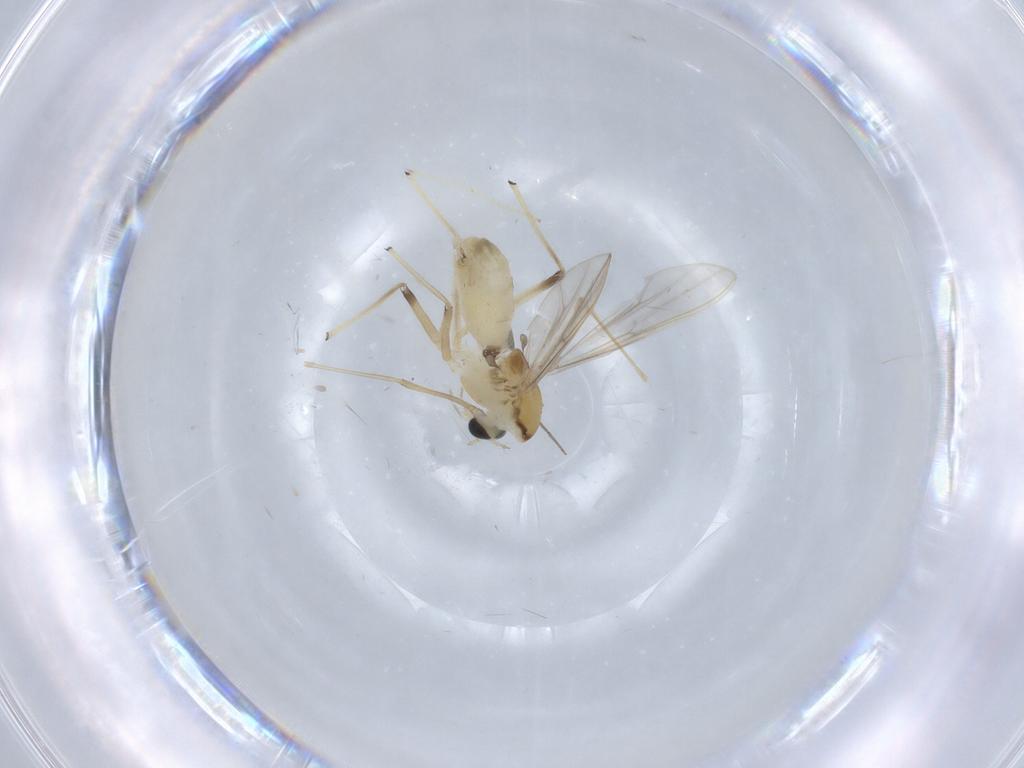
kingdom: Animalia
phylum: Arthropoda
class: Insecta
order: Diptera
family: Chironomidae
